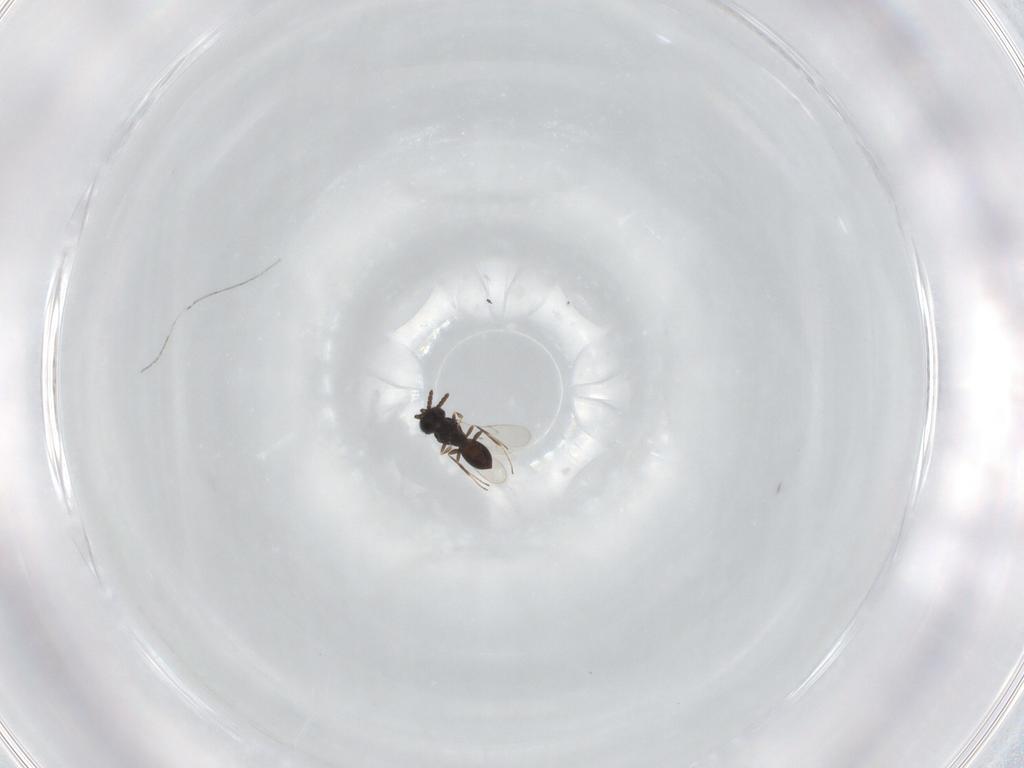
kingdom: Animalia
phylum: Arthropoda
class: Insecta
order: Hymenoptera
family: Scelionidae
